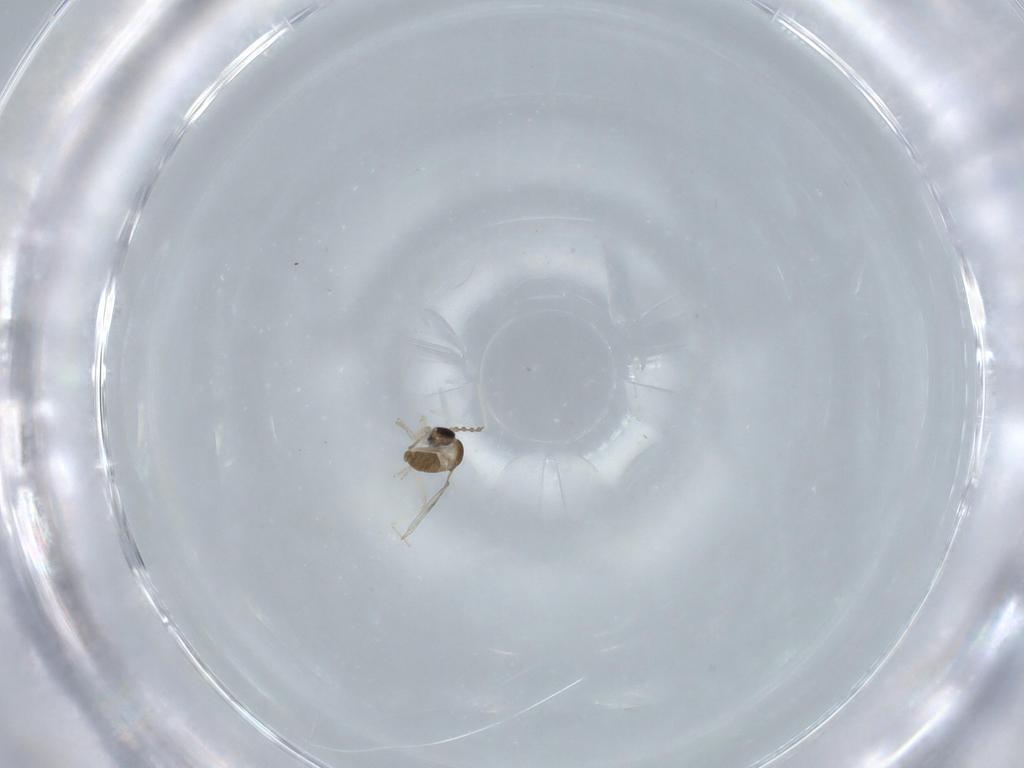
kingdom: Animalia
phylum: Arthropoda
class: Insecta
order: Diptera
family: Cecidomyiidae
